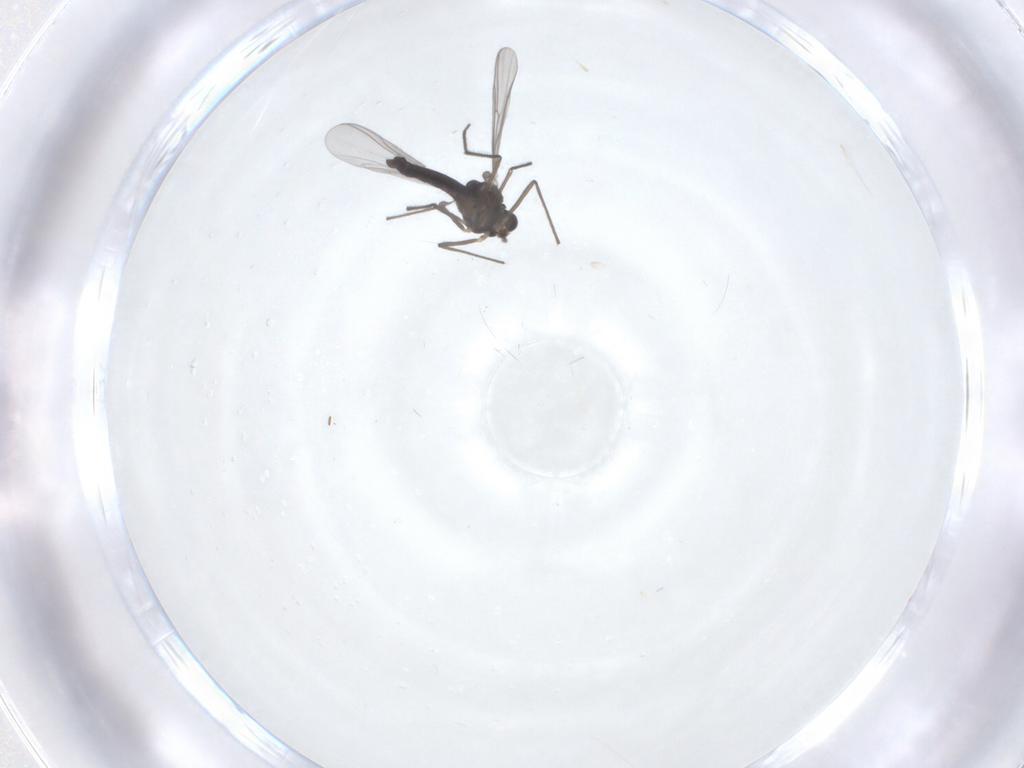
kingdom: Animalia
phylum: Arthropoda
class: Insecta
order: Diptera
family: Chironomidae
